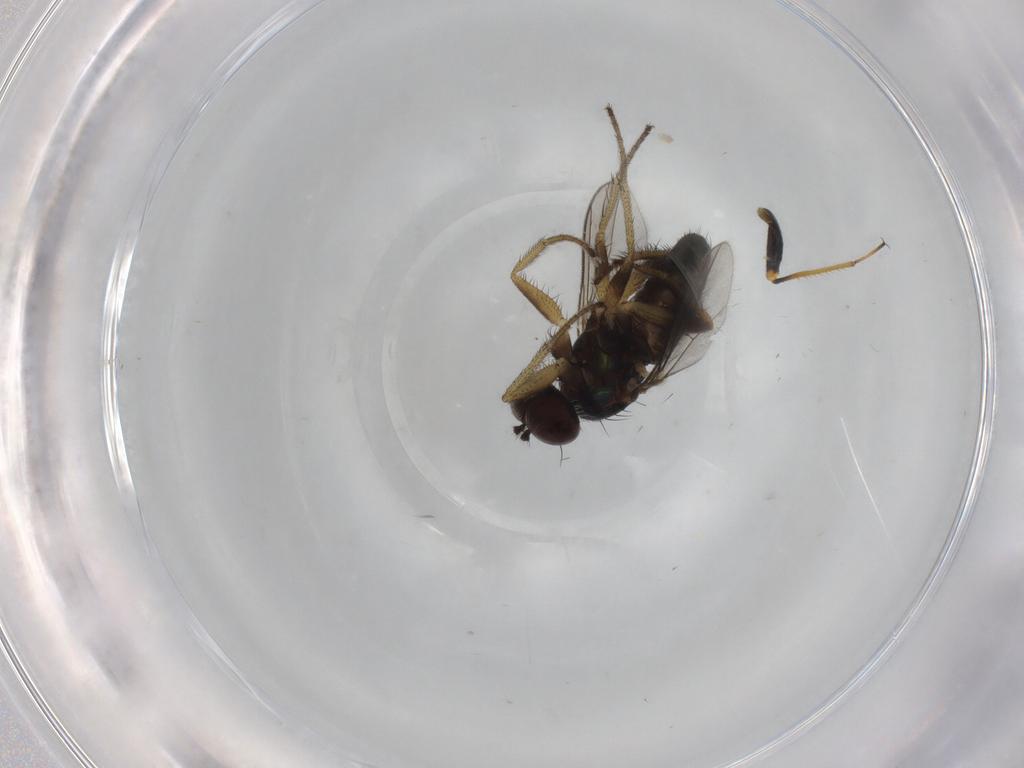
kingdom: Animalia
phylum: Arthropoda
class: Insecta
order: Diptera
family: Dolichopodidae
